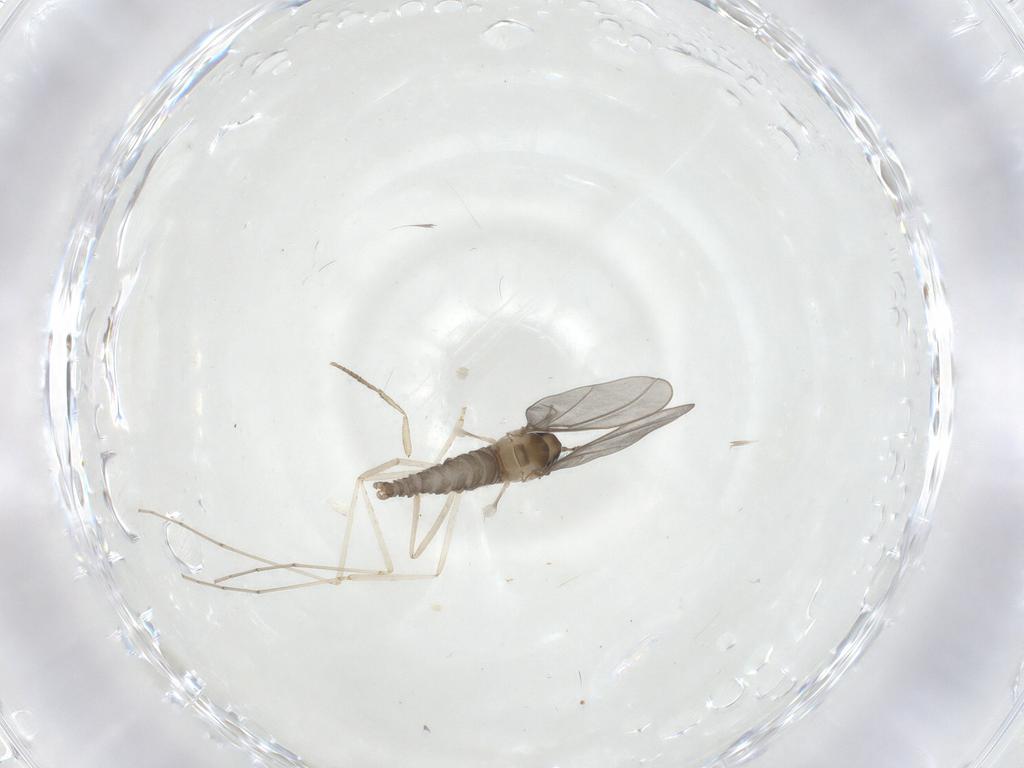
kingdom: Animalia
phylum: Arthropoda
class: Insecta
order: Diptera
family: Cecidomyiidae
